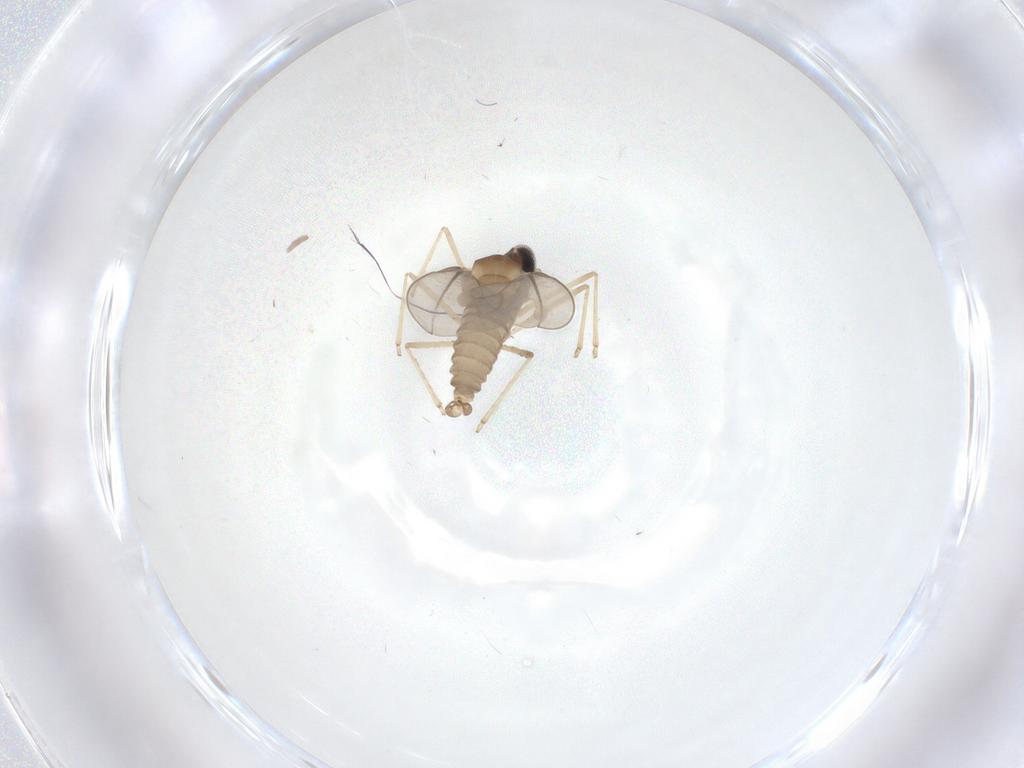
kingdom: Animalia
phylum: Arthropoda
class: Insecta
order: Diptera
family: Cecidomyiidae
